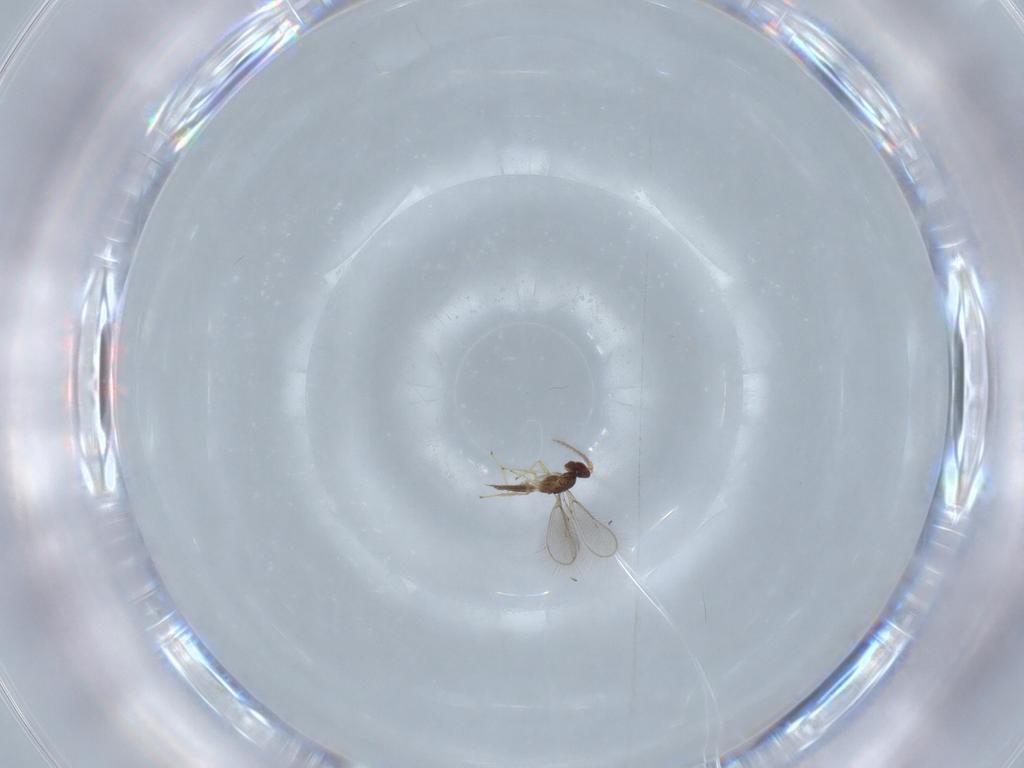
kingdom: Animalia
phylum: Arthropoda
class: Insecta
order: Hymenoptera
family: Eulophidae
